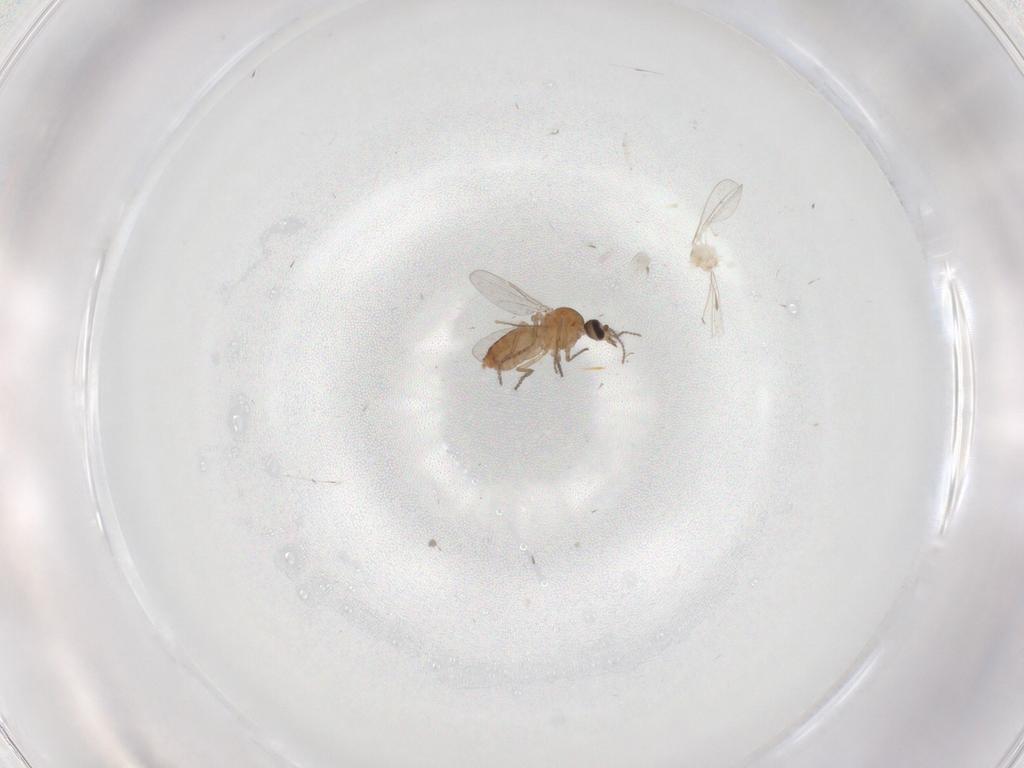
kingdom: Animalia
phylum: Arthropoda
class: Insecta
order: Diptera
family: Ceratopogonidae
